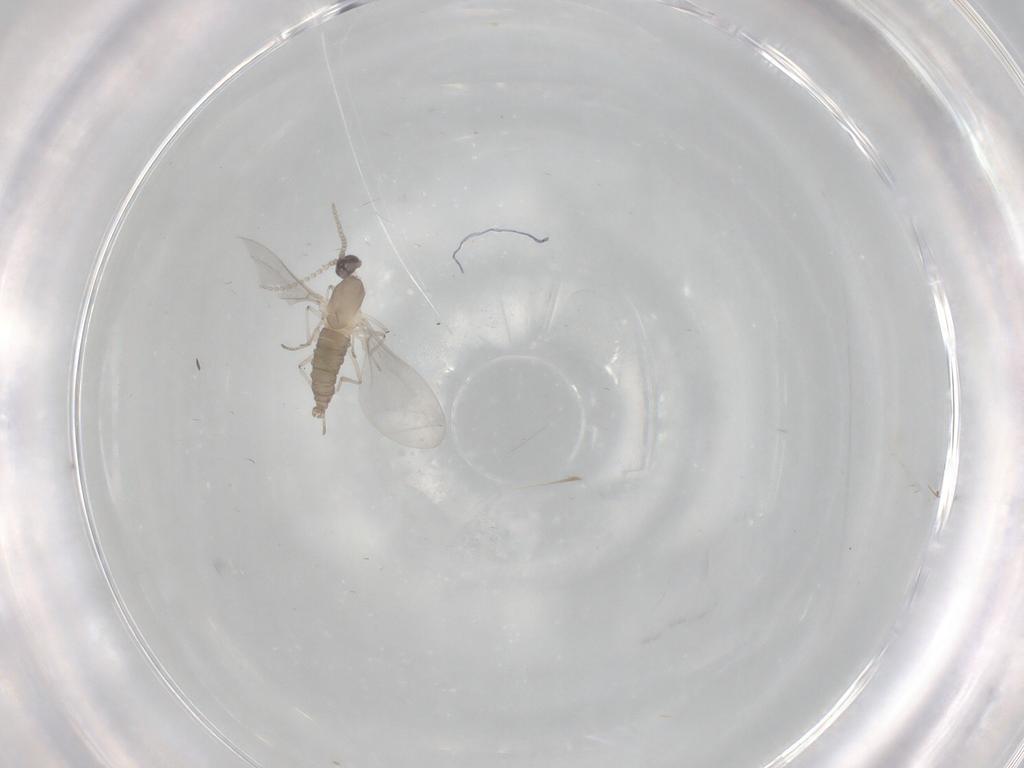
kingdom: Animalia
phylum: Arthropoda
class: Insecta
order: Diptera
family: Cecidomyiidae
